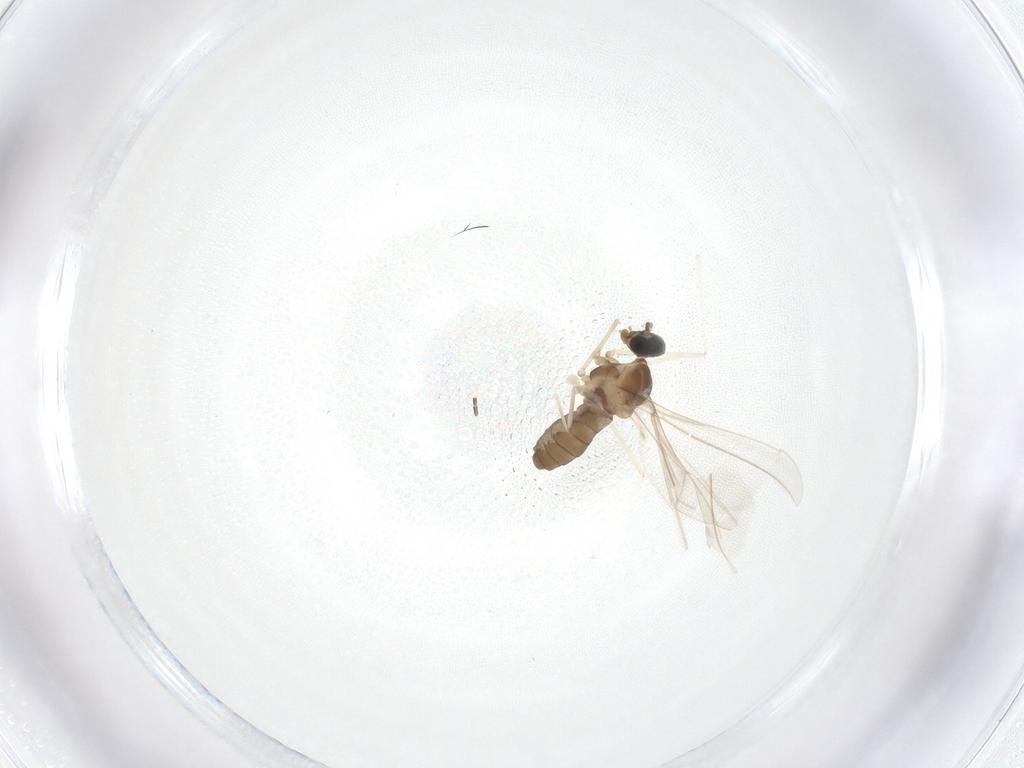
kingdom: Animalia
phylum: Arthropoda
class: Insecta
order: Diptera
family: Cecidomyiidae
